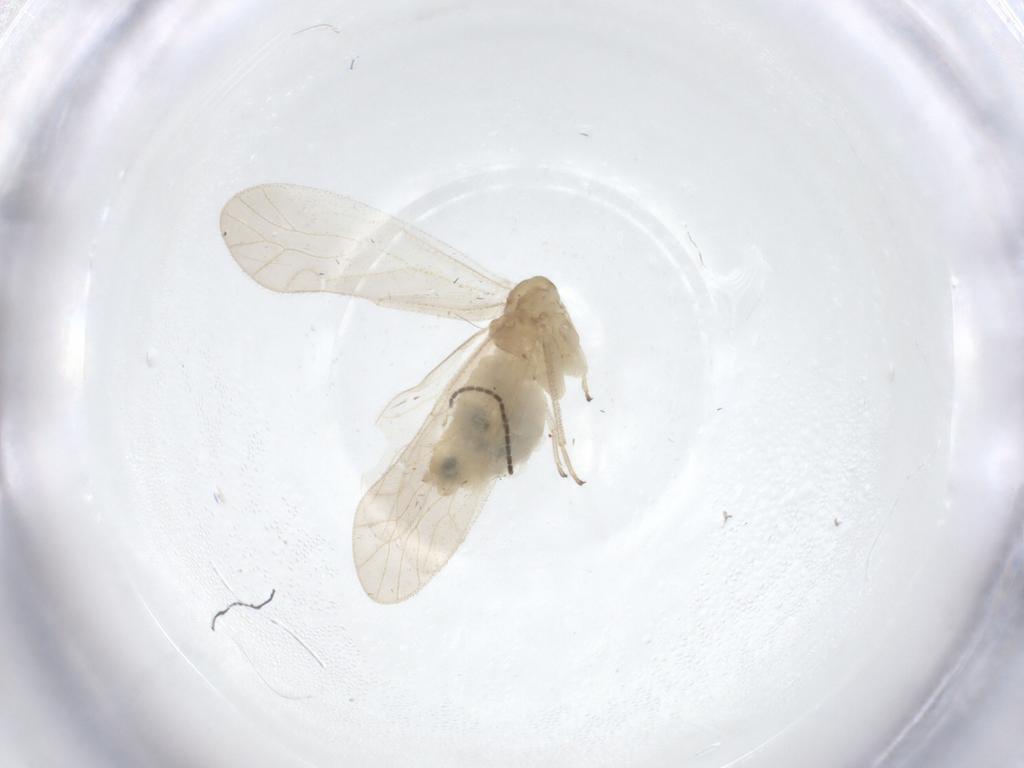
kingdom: Animalia
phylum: Arthropoda
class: Insecta
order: Psocodea
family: Caeciliusidae
